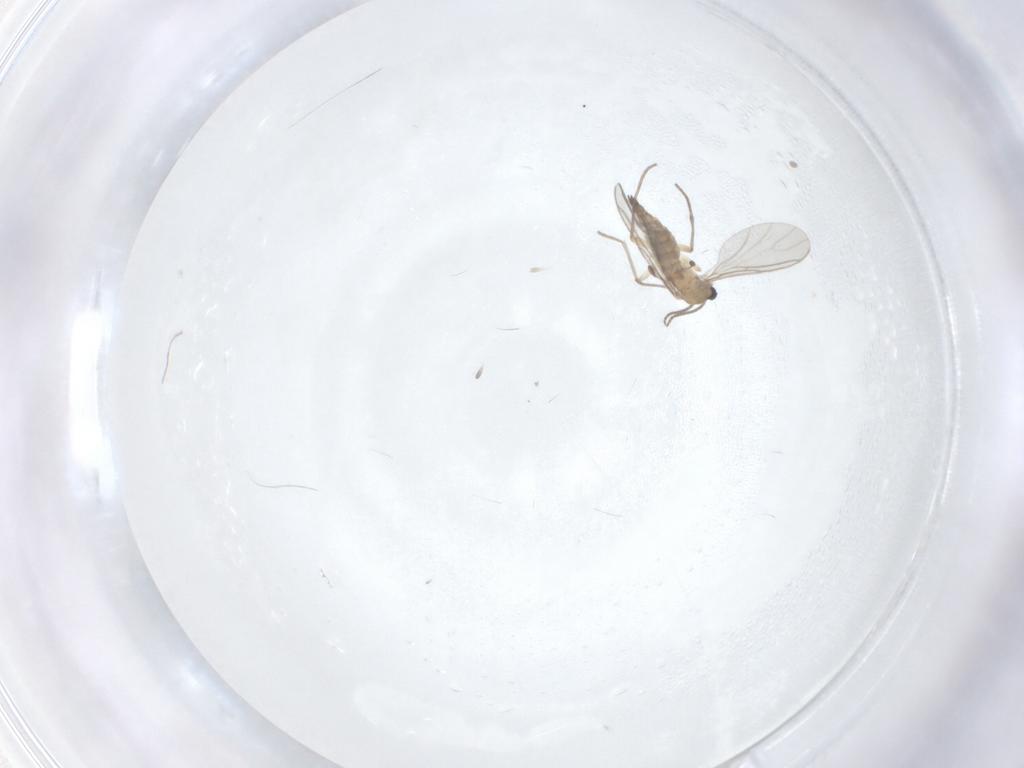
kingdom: Animalia
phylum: Arthropoda
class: Insecta
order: Diptera
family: Sciaridae
